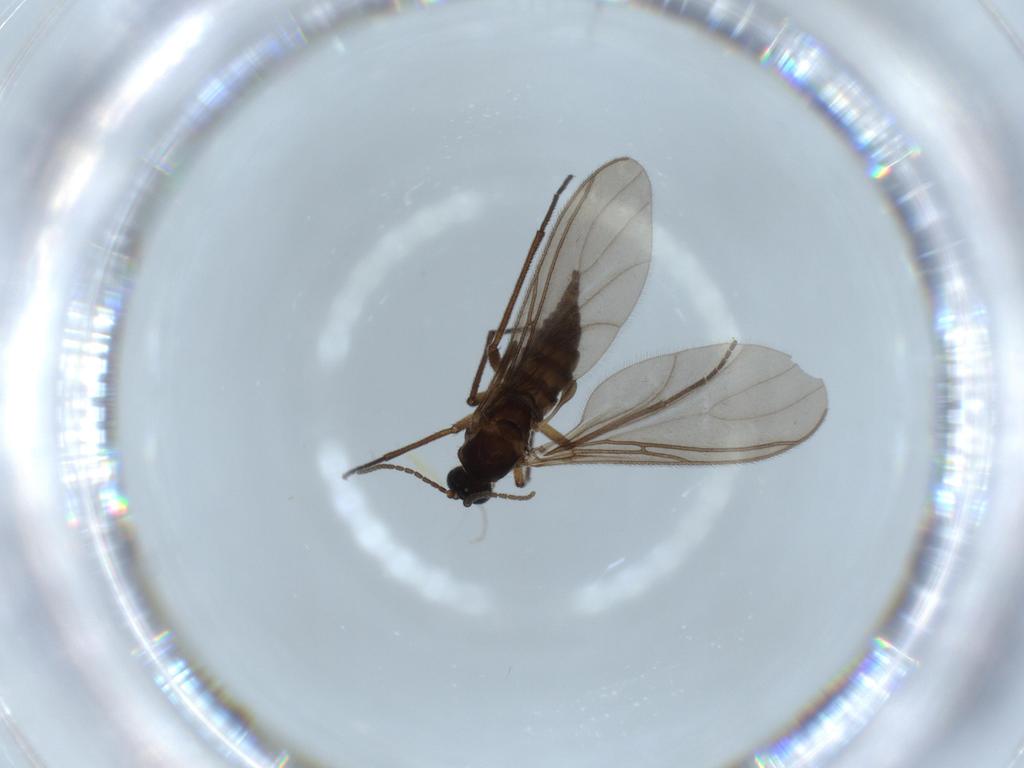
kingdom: Animalia
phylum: Arthropoda
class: Insecta
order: Diptera
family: Sciaridae
